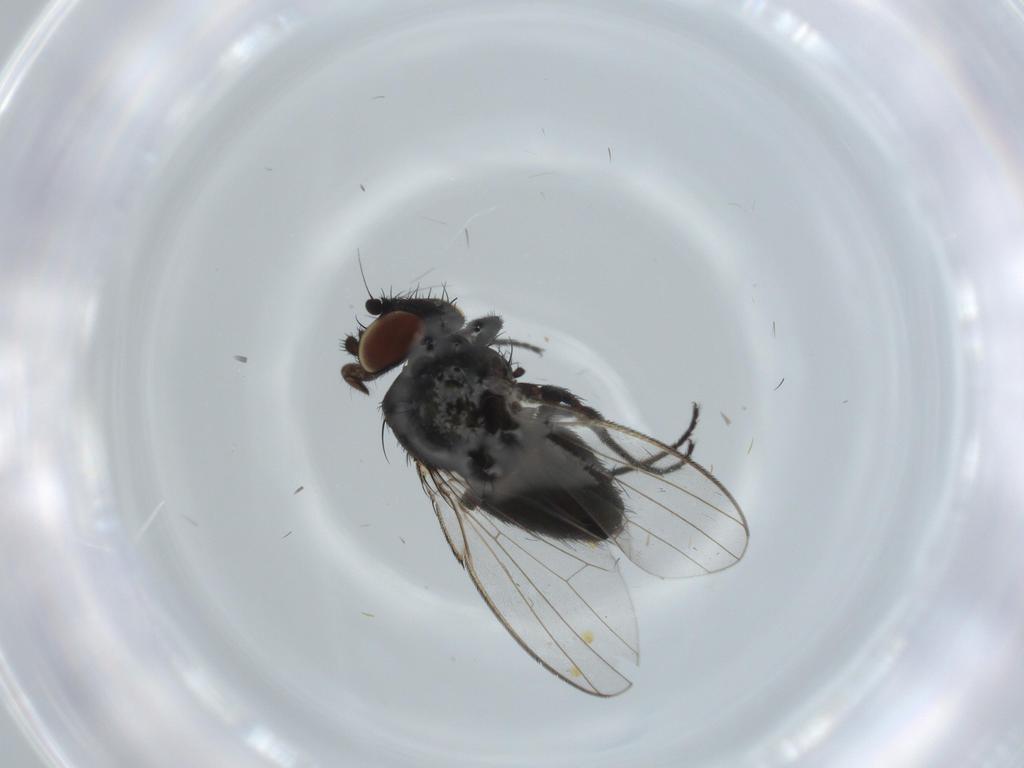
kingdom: Animalia
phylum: Arthropoda
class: Insecta
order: Diptera
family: Milichiidae
